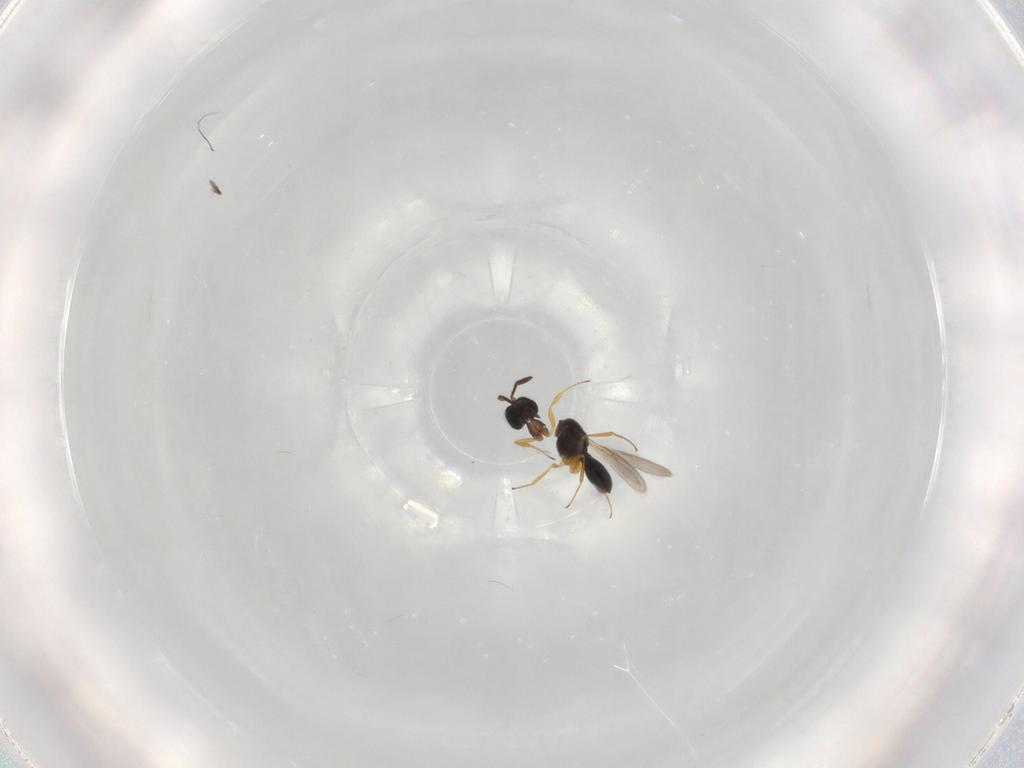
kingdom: Animalia
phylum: Arthropoda
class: Insecta
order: Hymenoptera
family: Scelionidae
